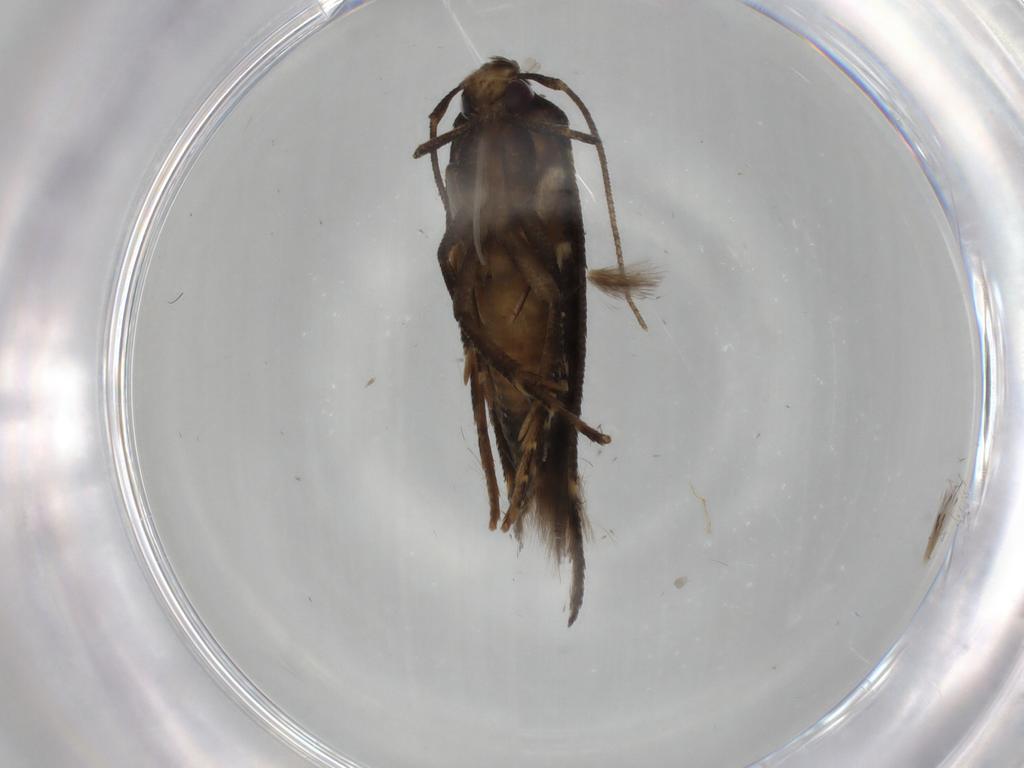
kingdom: Animalia
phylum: Arthropoda
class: Insecta
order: Lepidoptera
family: Cosmopterigidae
